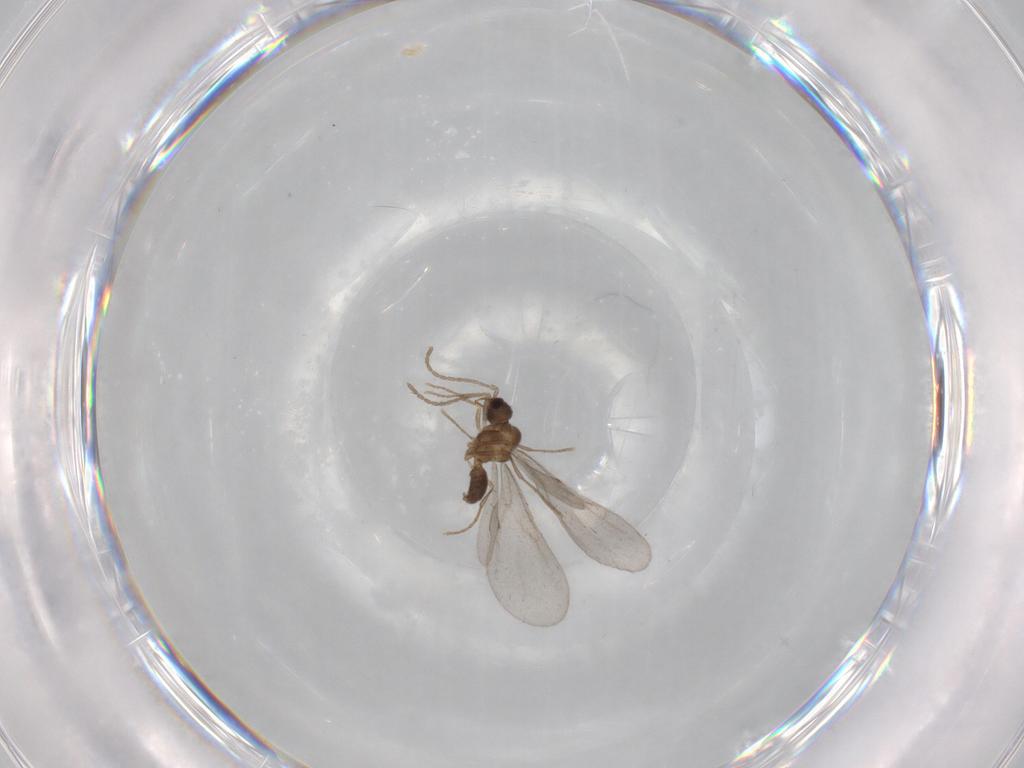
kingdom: Animalia
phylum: Arthropoda
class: Insecta
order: Hymenoptera
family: Formicidae
